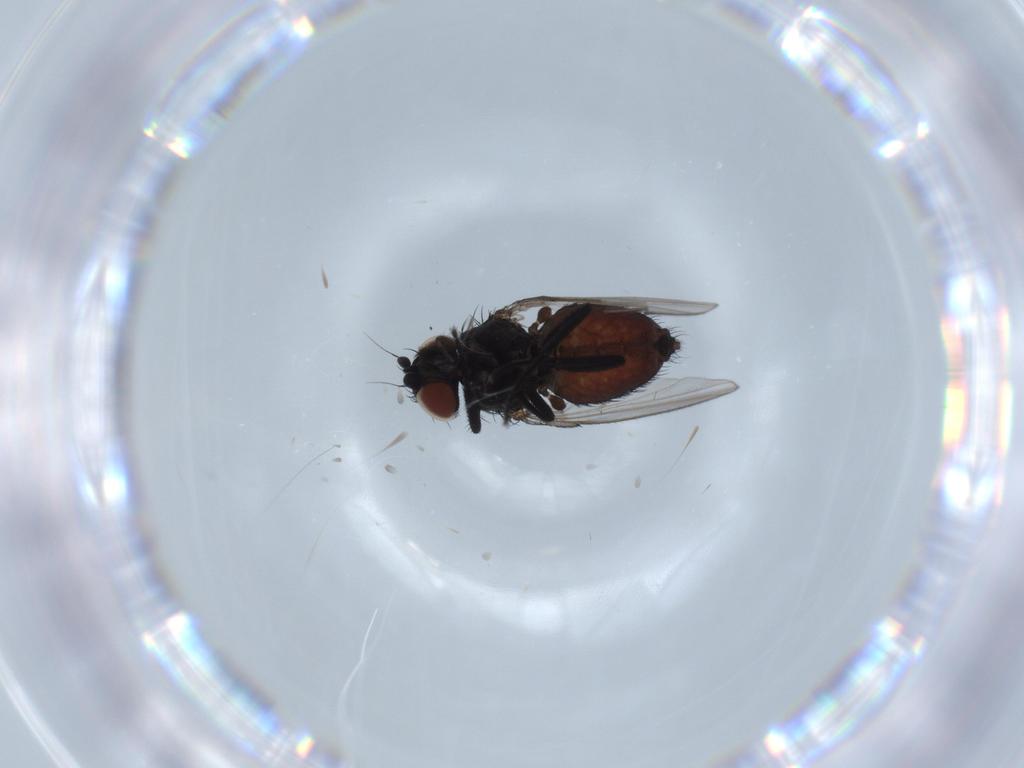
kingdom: Animalia
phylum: Arthropoda
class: Insecta
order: Diptera
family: Milichiidae
